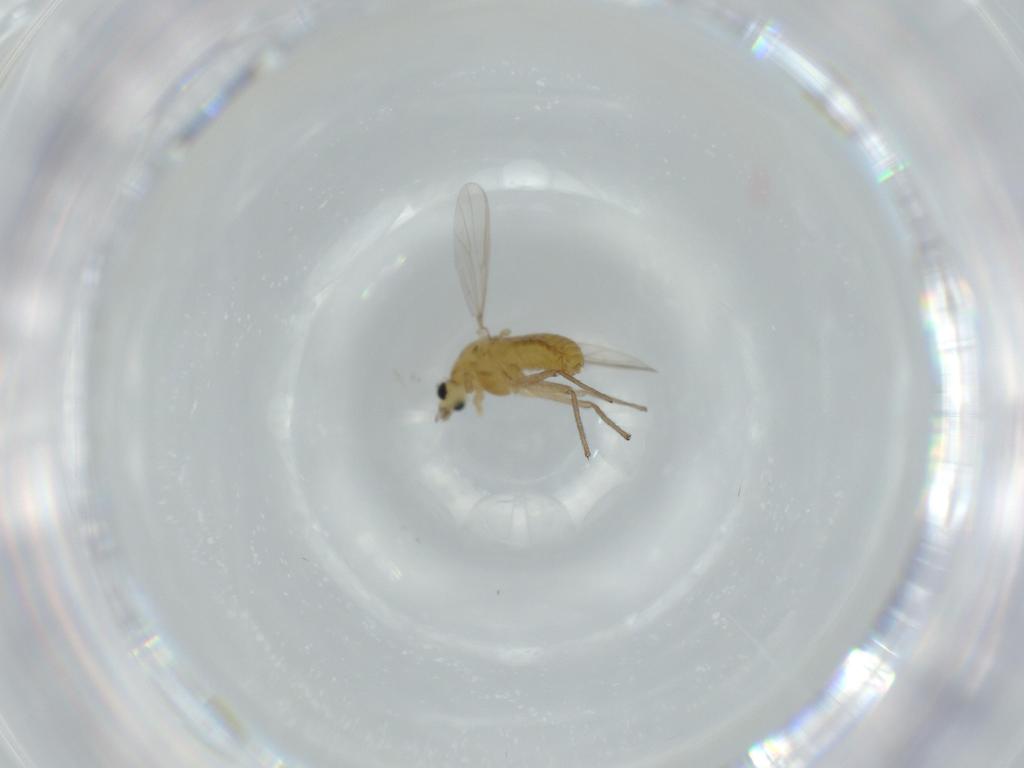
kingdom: Animalia
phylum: Arthropoda
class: Insecta
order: Diptera
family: Chironomidae
